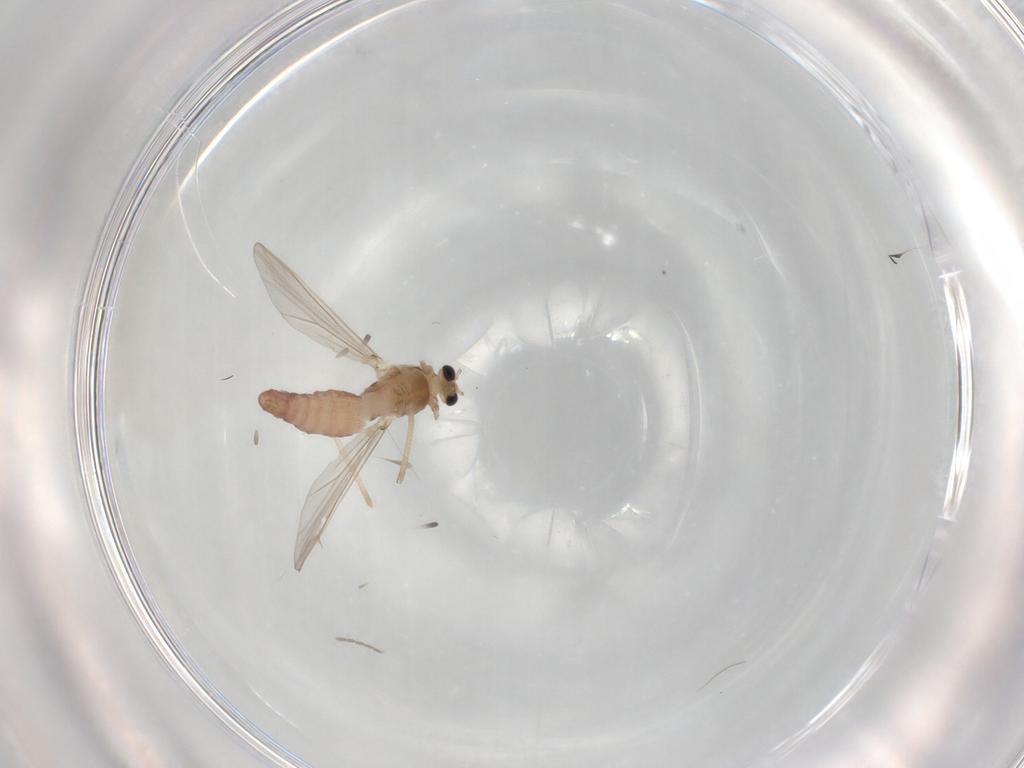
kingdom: Animalia
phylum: Arthropoda
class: Insecta
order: Diptera
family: Chironomidae
